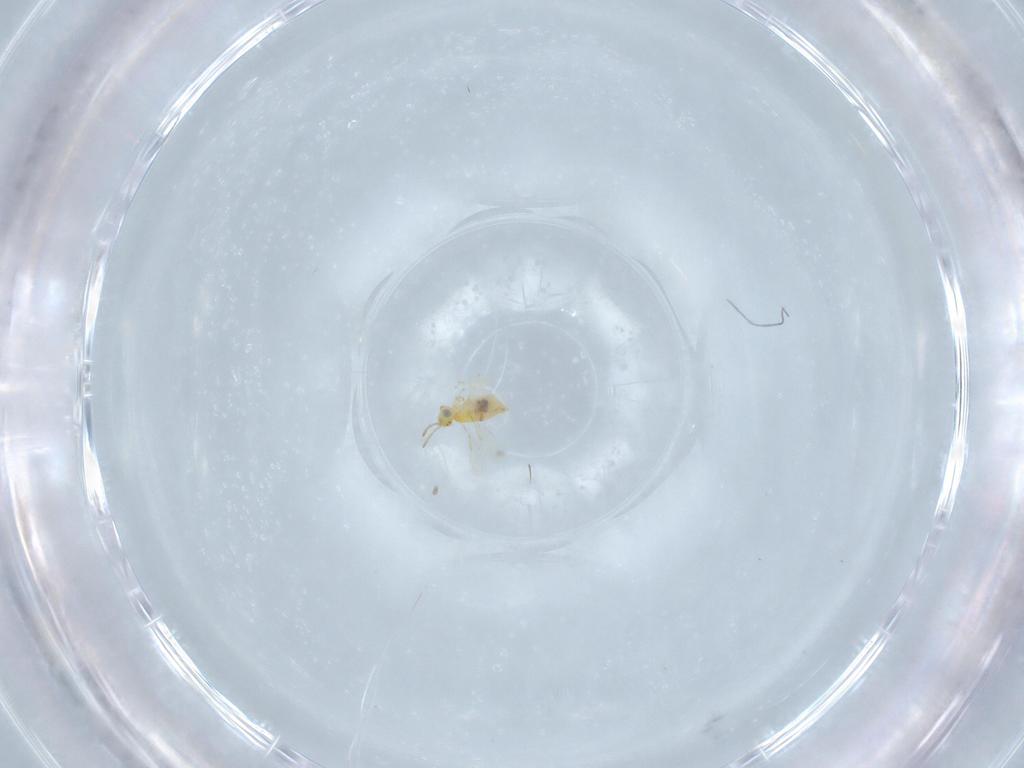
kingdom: Animalia
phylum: Arthropoda
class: Insecta
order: Hymenoptera
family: Aphelinidae
